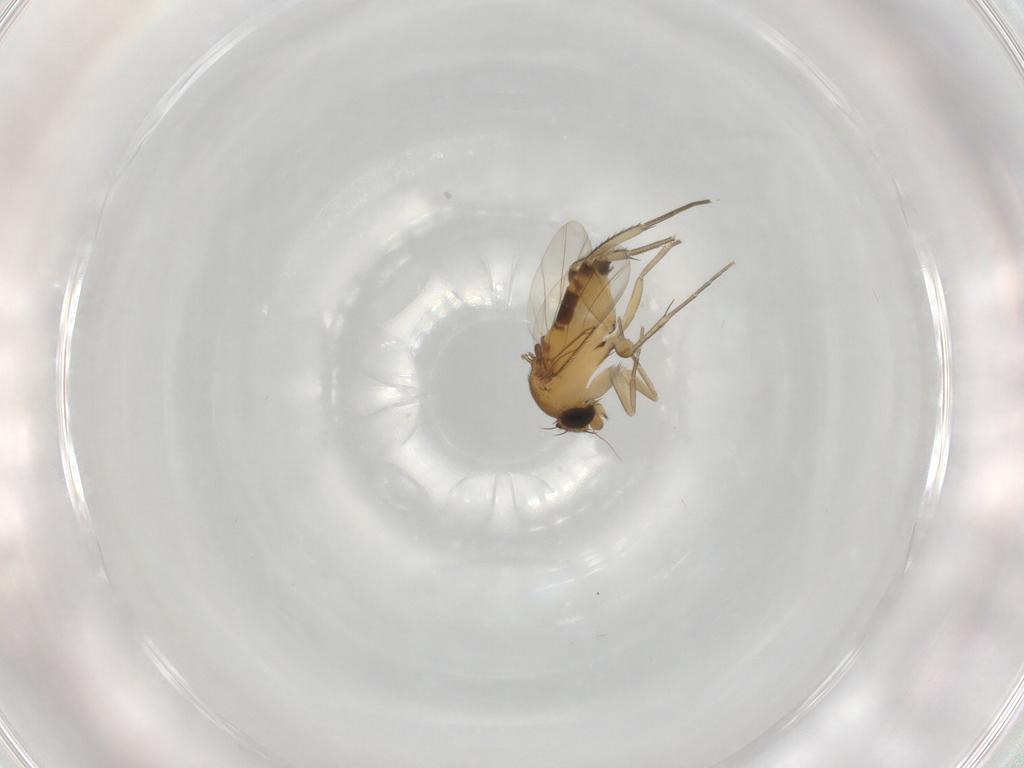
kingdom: Animalia
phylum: Arthropoda
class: Insecta
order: Diptera
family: Phoridae
